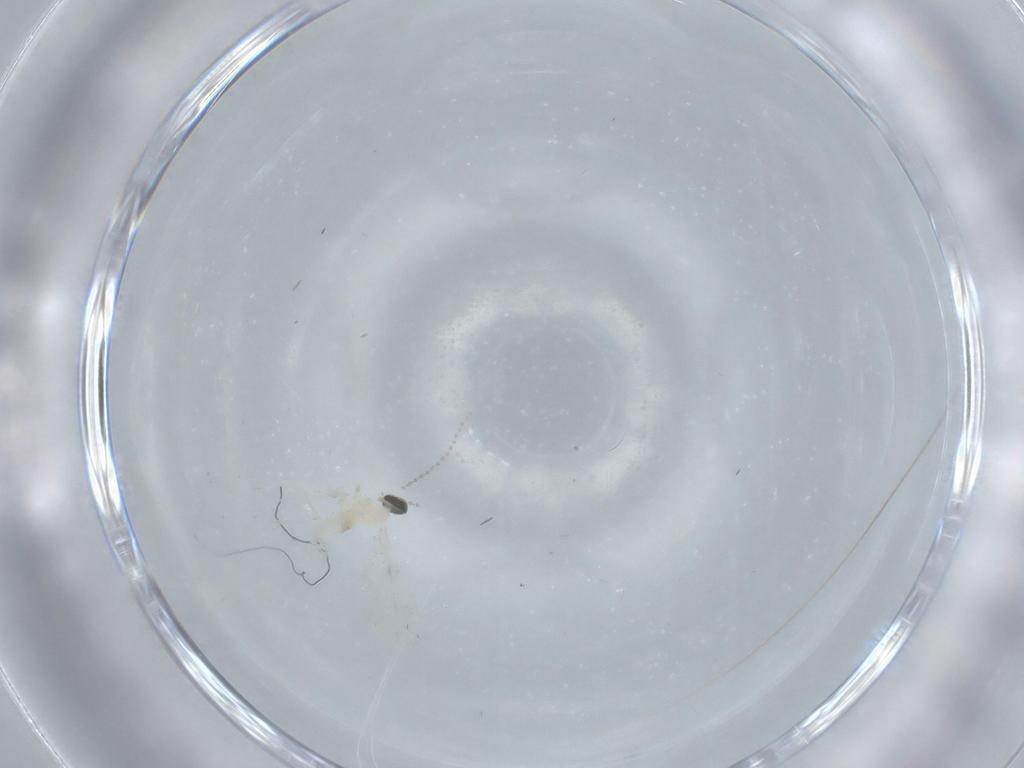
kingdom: Animalia
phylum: Arthropoda
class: Insecta
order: Diptera
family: Cecidomyiidae
